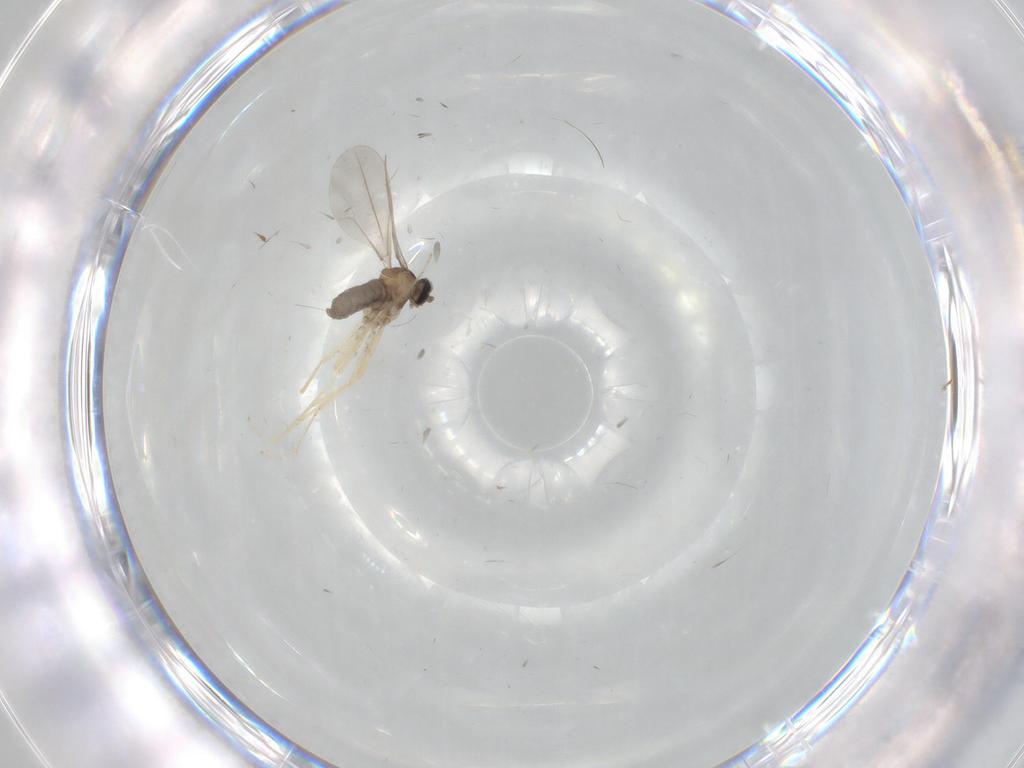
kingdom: Animalia
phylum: Arthropoda
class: Insecta
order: Diptera
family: Cecidomyiidae
